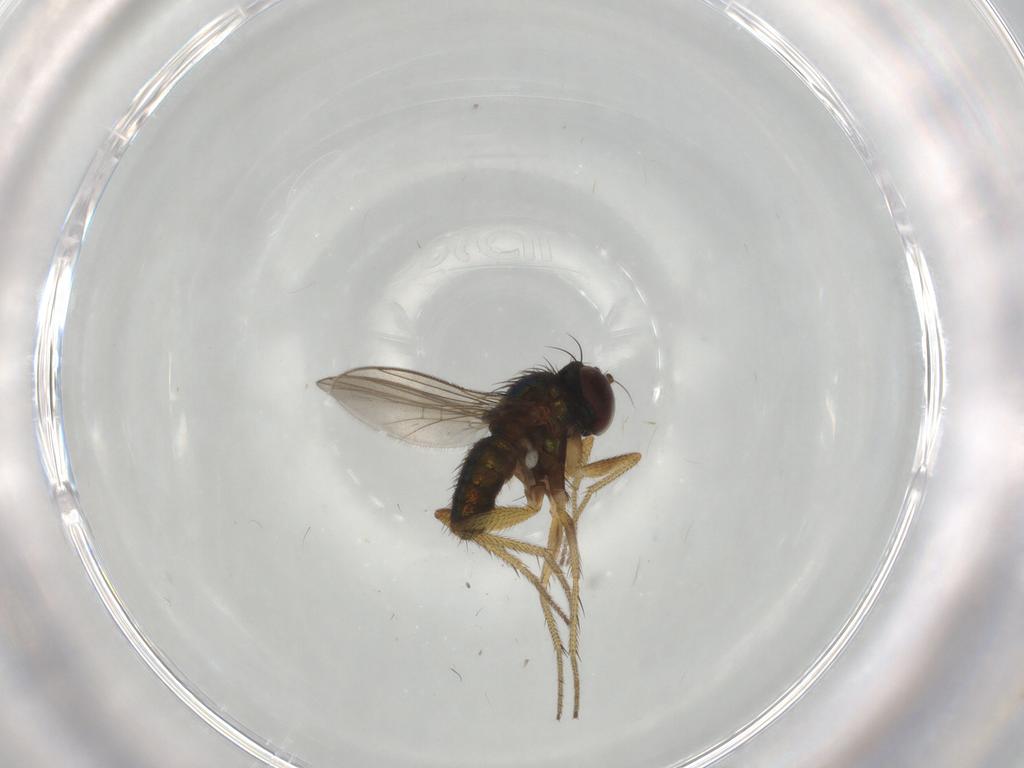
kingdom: Animalia
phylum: Arthropoda
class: Insecta
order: Diptera
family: Dolichopodidae
